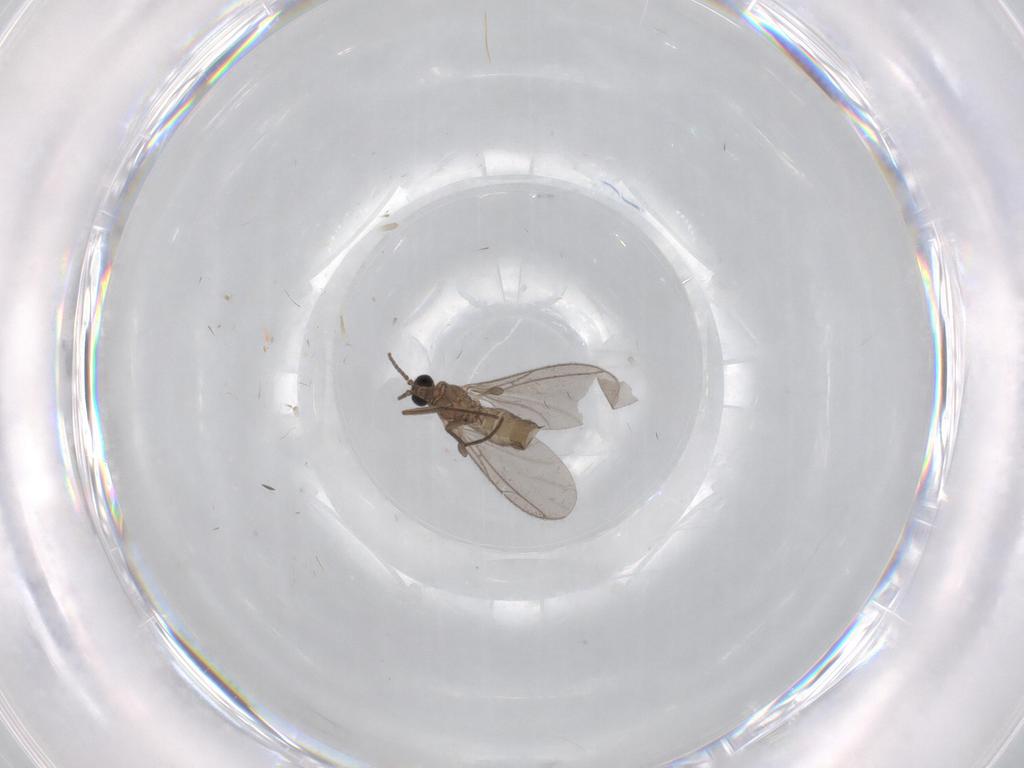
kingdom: Animalia
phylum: Arthropoda
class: Insecta
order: Diptera
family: Sciaridae
